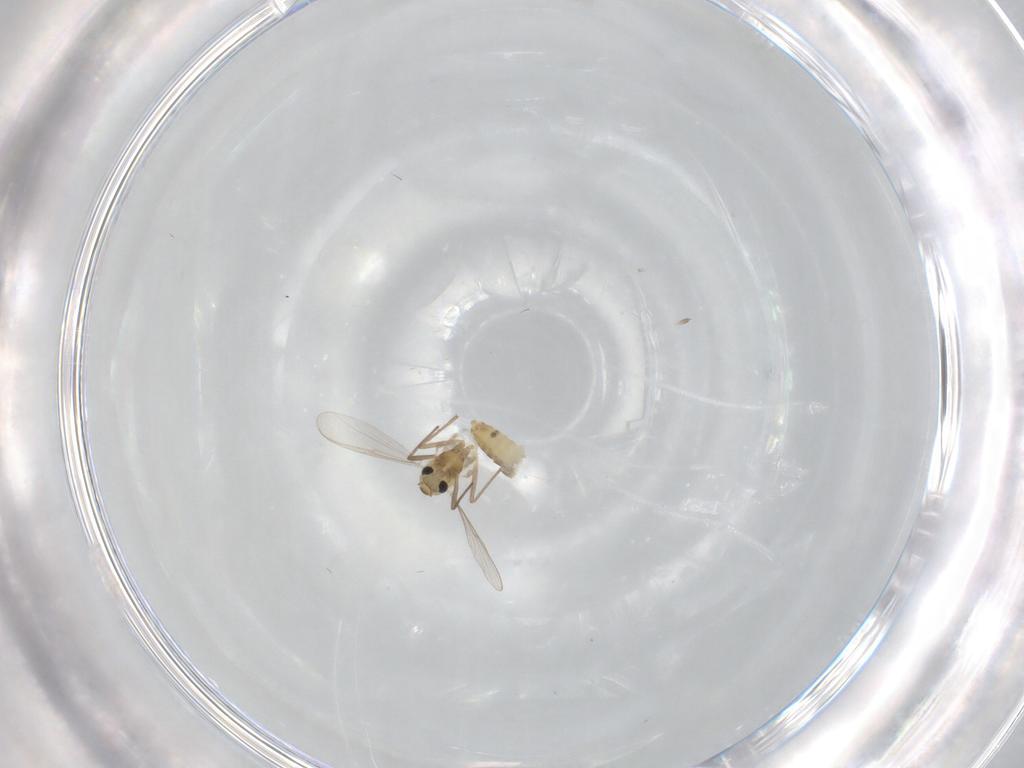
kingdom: Animalia
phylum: Arthropoda
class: Insecta
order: Diptera
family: Chironomidae
